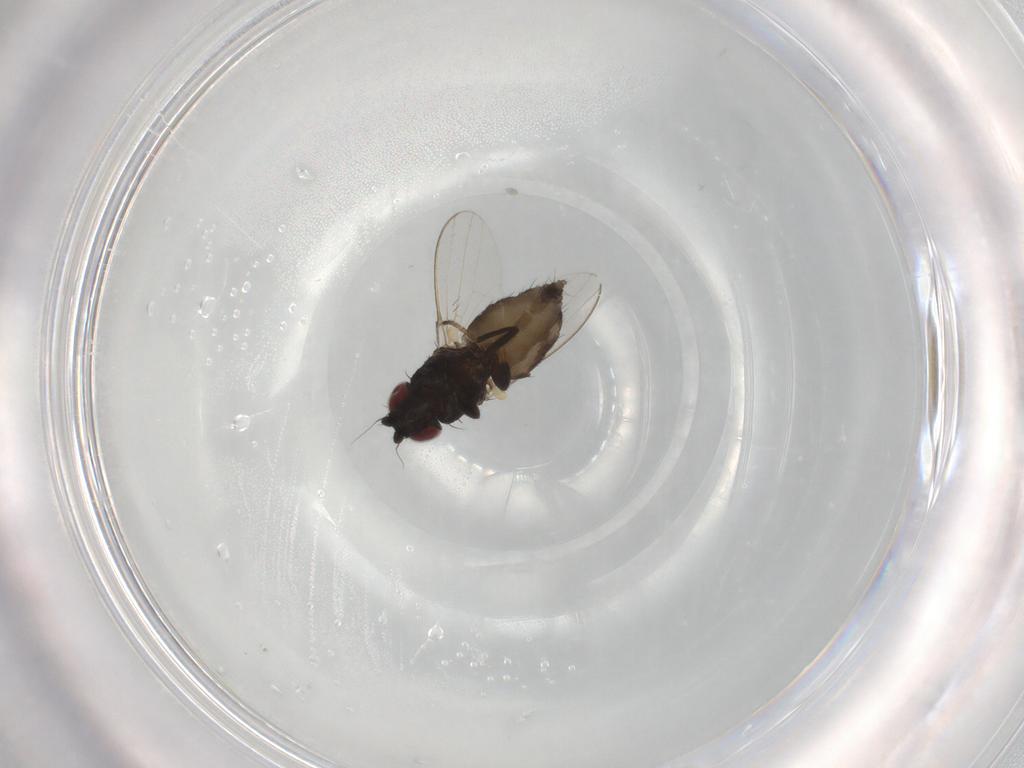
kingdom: Animalia
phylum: Arthropoda
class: Insecta
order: Diptera
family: Milichiidae
